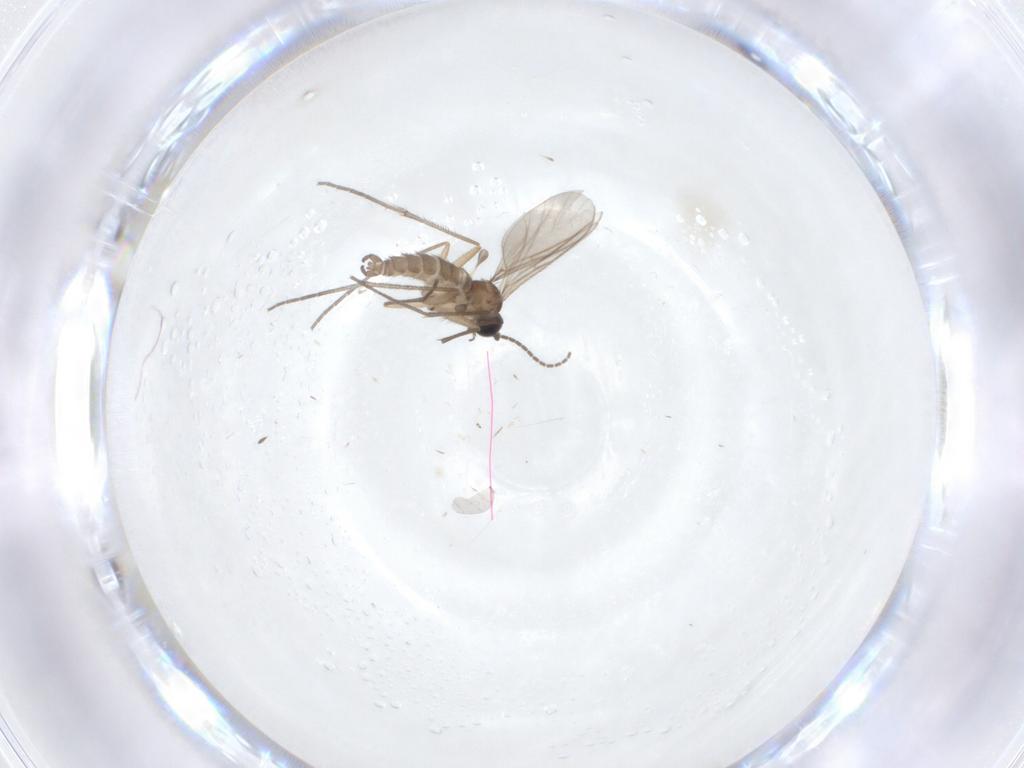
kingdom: Animalia
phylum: Arthropoda
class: Insecta
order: Diptera
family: Sciaridae
